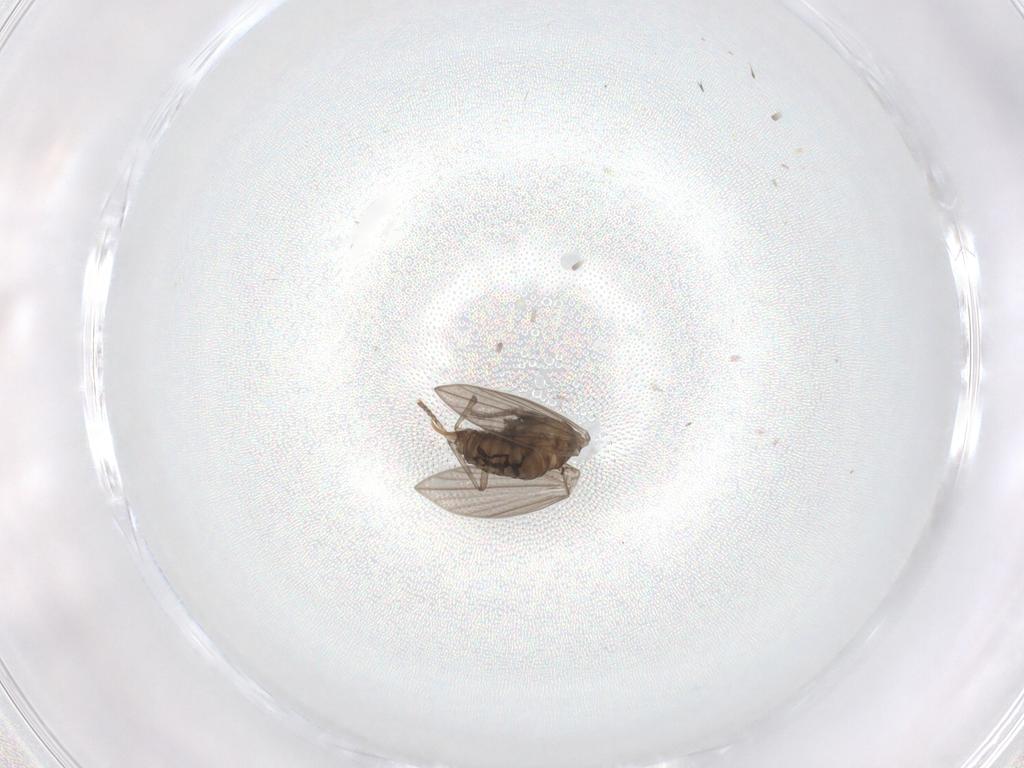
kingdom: Animalia
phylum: Arthropoda
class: Insecta
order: Diptera
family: Psychodidae
